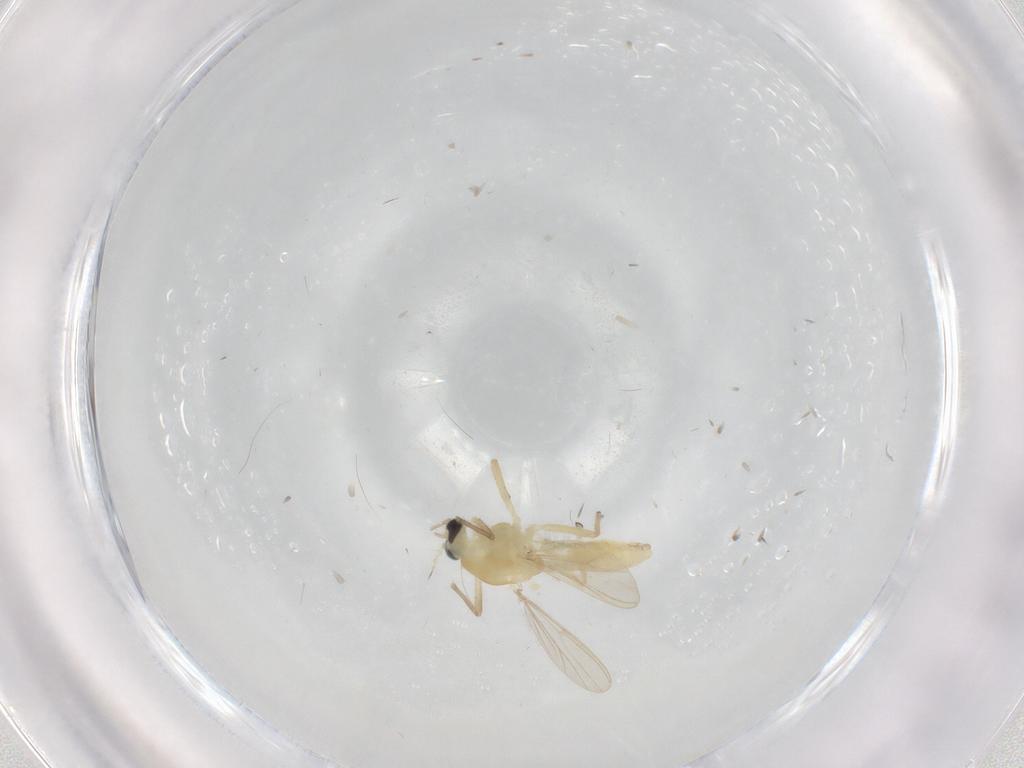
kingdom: Animalia
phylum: Arthropoda
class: Insecta
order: Diptera
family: Chironomidae
